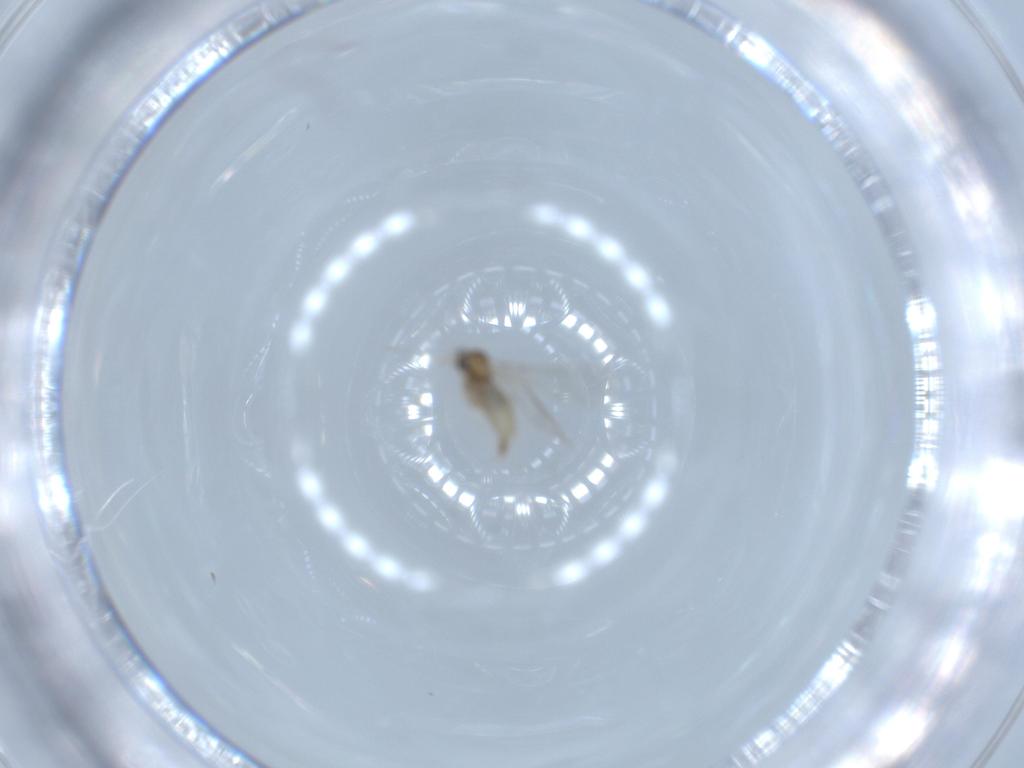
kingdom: Animalia
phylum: Arthropoda
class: Insecta
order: Diptera
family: Cecidomyiidae
